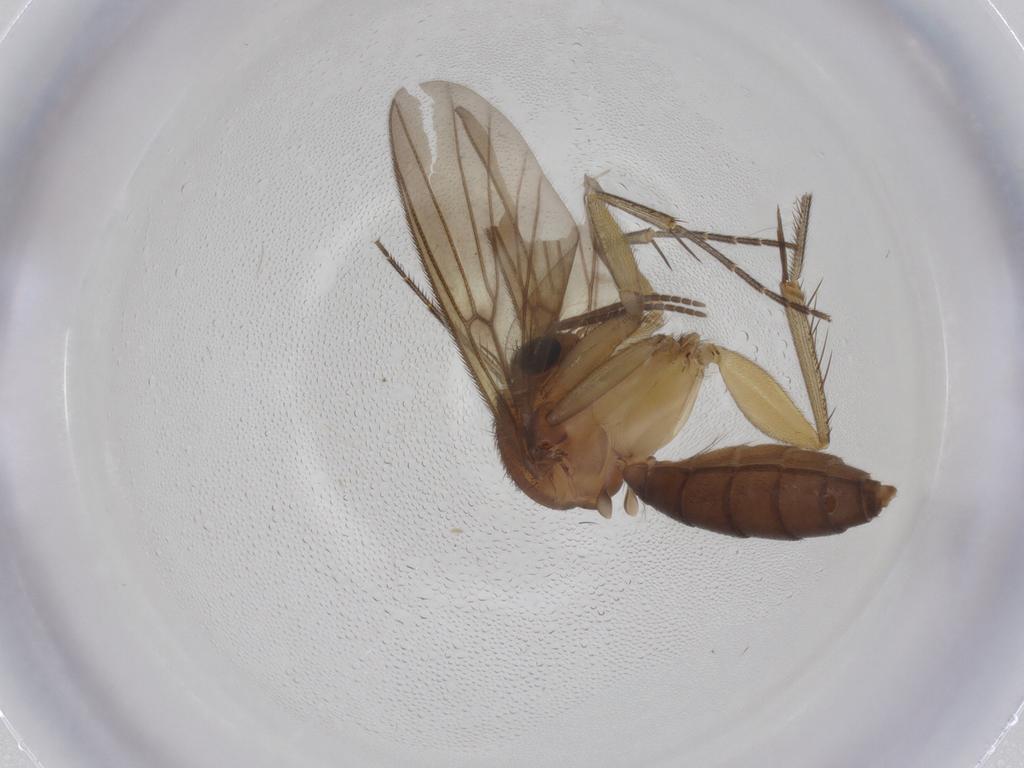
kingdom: Animalia
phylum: Arthropoda
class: Insecta
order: Diptera
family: Mycetophilidae
